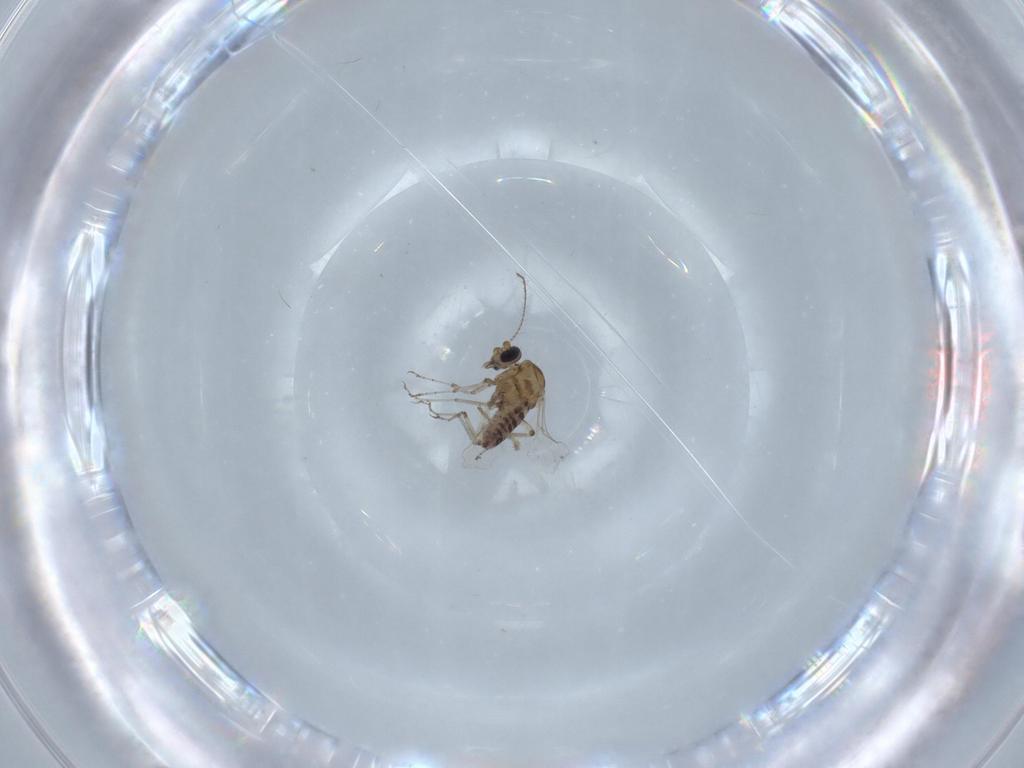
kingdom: Animalia
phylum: Arthropoda
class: Insecta
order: Diptera
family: Ceratopogonidae
